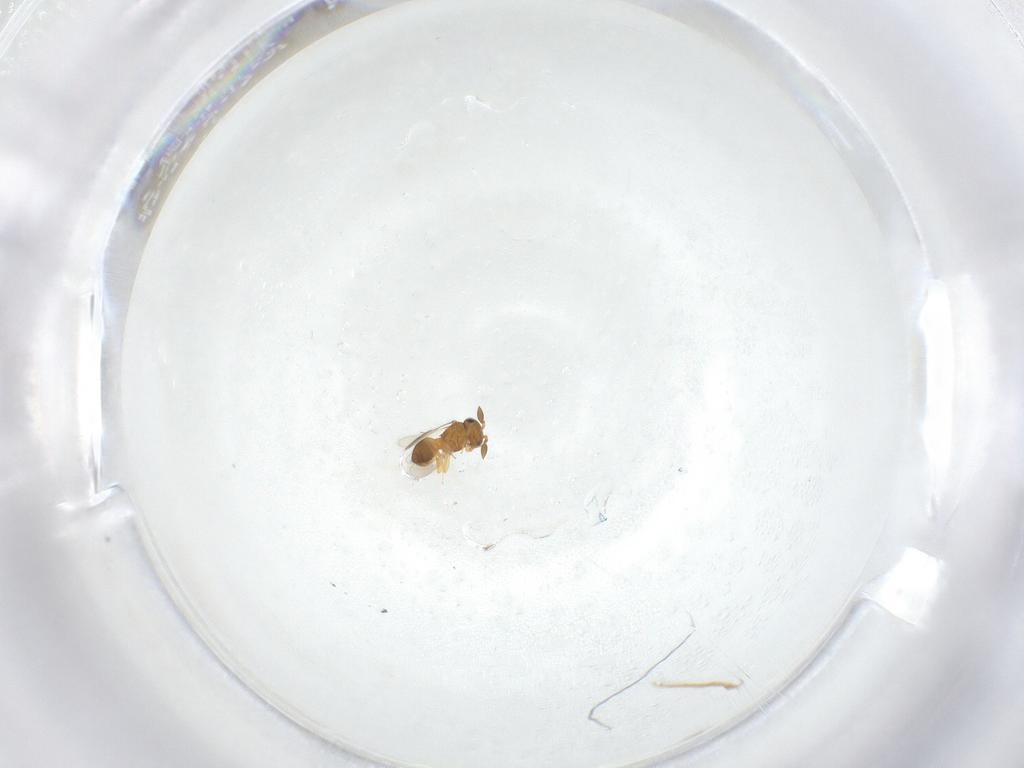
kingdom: Animalia
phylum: Arthropoda
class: Insecta
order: Hymenoptera
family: Scelionidae
